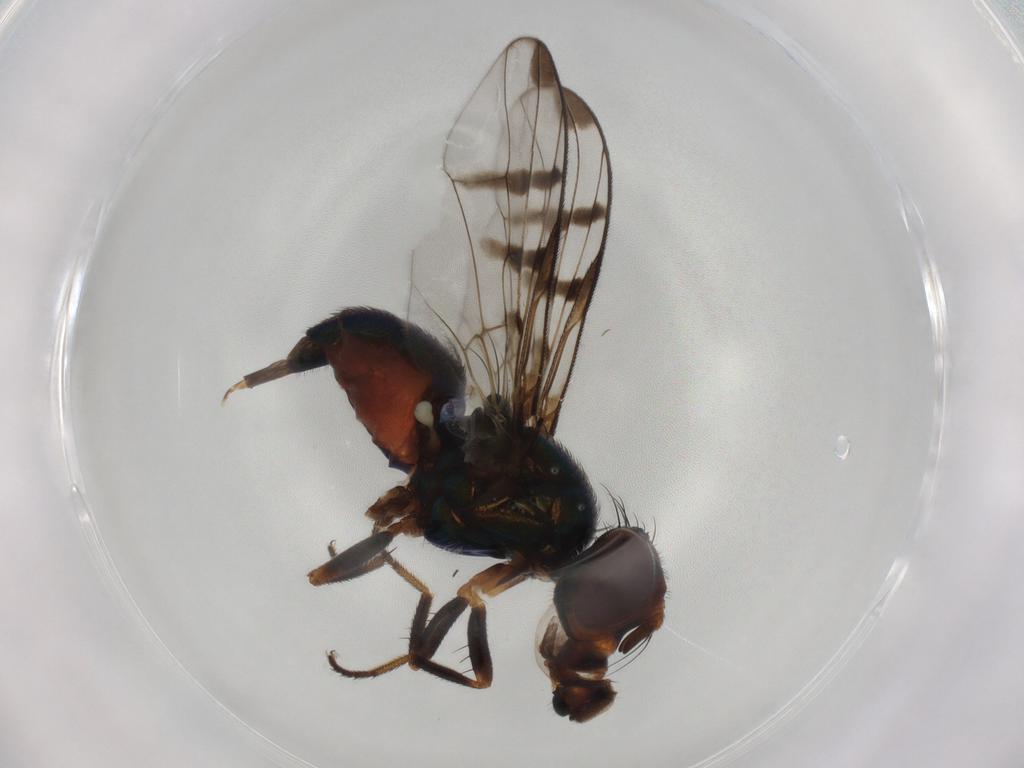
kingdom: Animalia
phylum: Arthropoda
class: Insecta
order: Diptera
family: Platystomatidae
